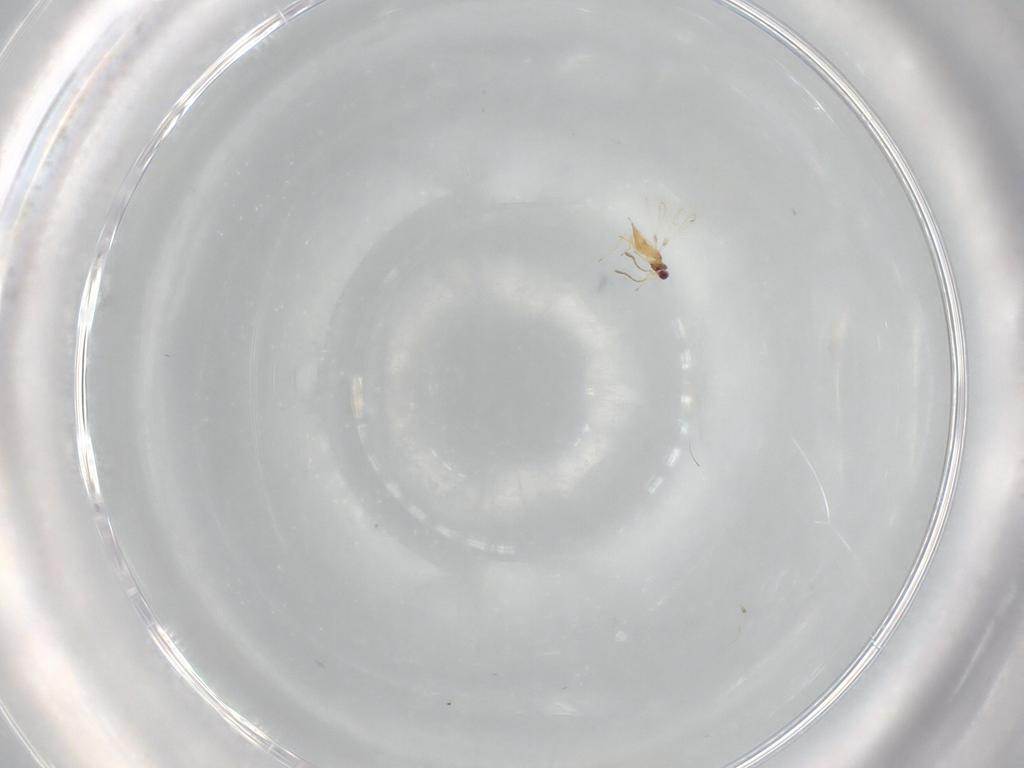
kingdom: Animalia
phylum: Arthropoda
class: Insecta
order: Hymenoptera
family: Mymaridae
